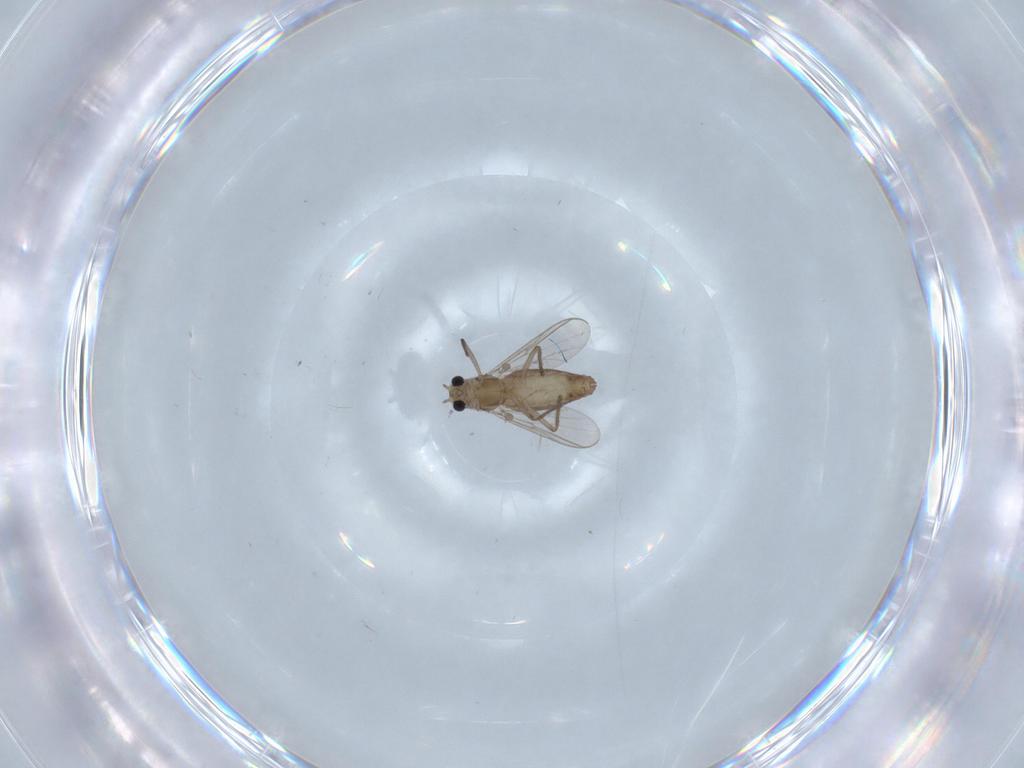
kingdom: Animalia
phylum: Arthropoda
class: Insecta
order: Diptera
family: Chironomidae
